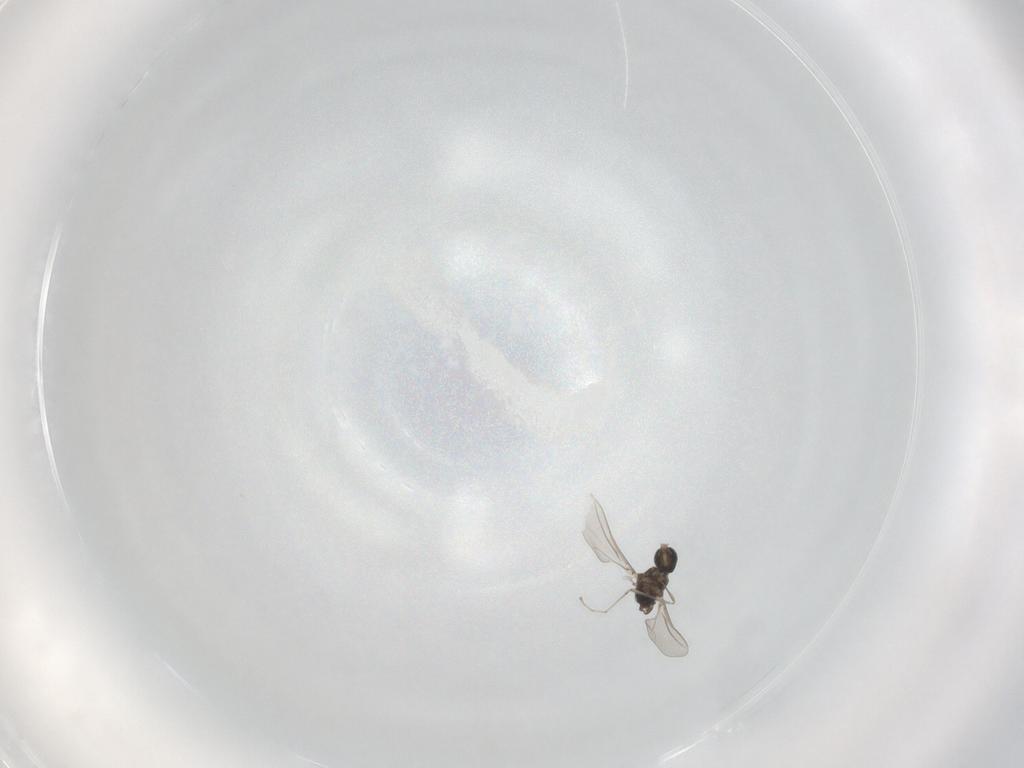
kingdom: Animalia
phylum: Arthropoda
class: Insecta
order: Diptera
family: Cecidomyiidae
